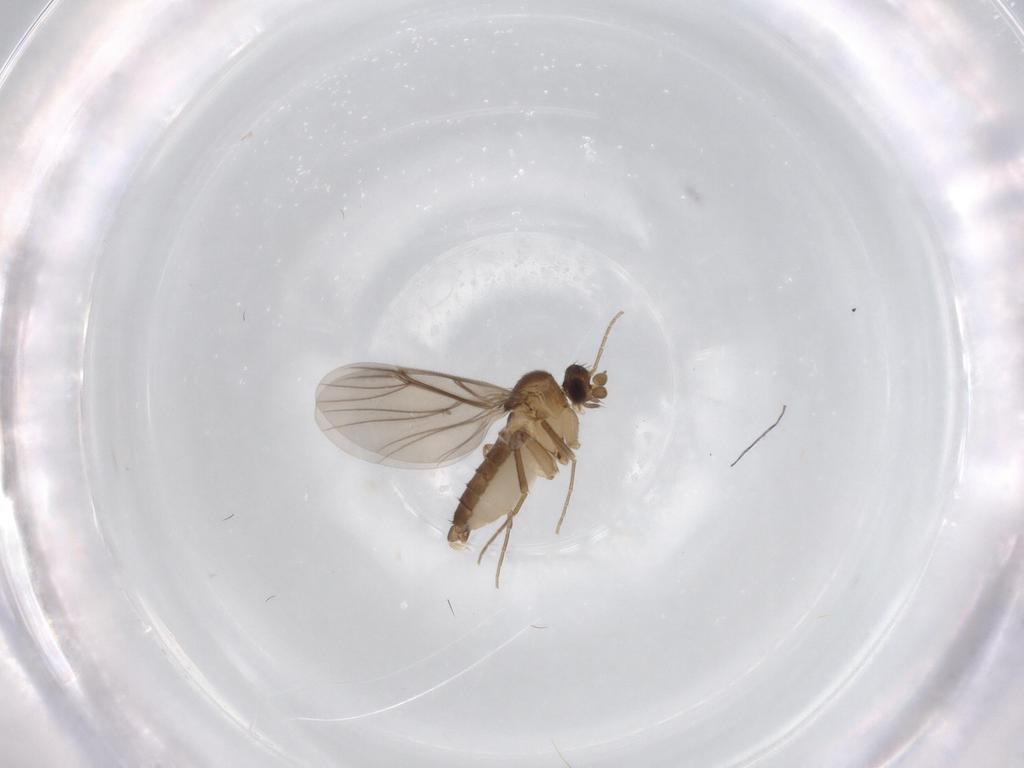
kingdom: Animalia
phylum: Arthropoda
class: Insecta
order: Diptera
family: Phoridae
